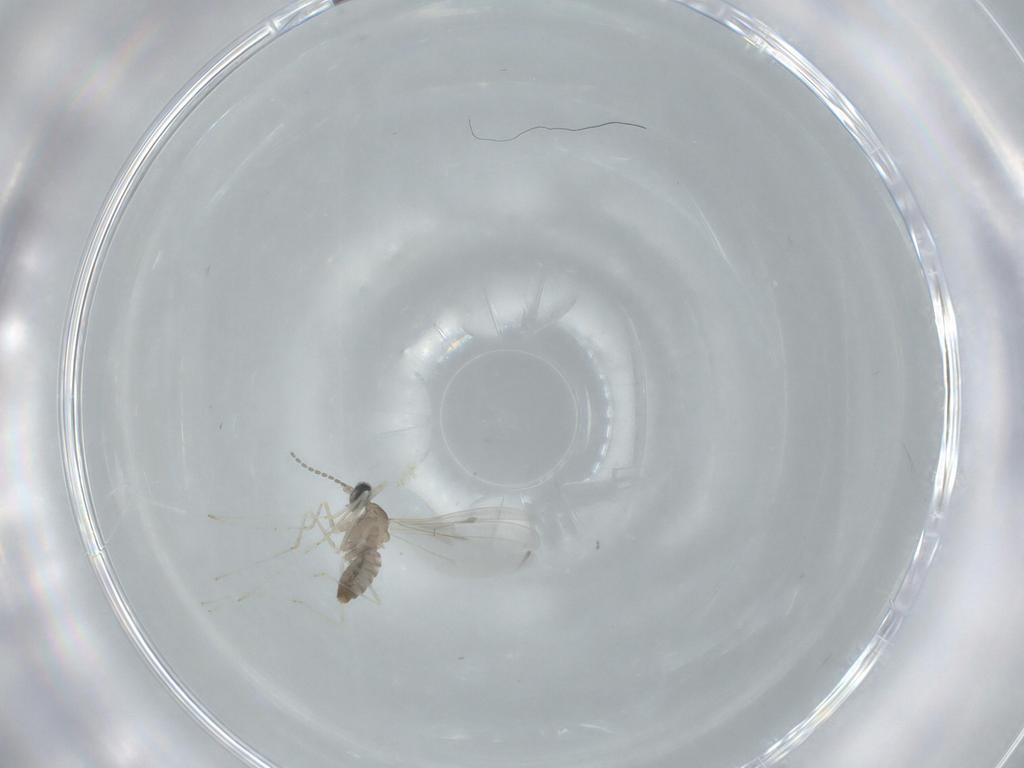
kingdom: Animalia
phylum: Arthropoda
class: Insecta
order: Diptera
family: Cecidomyiidae
